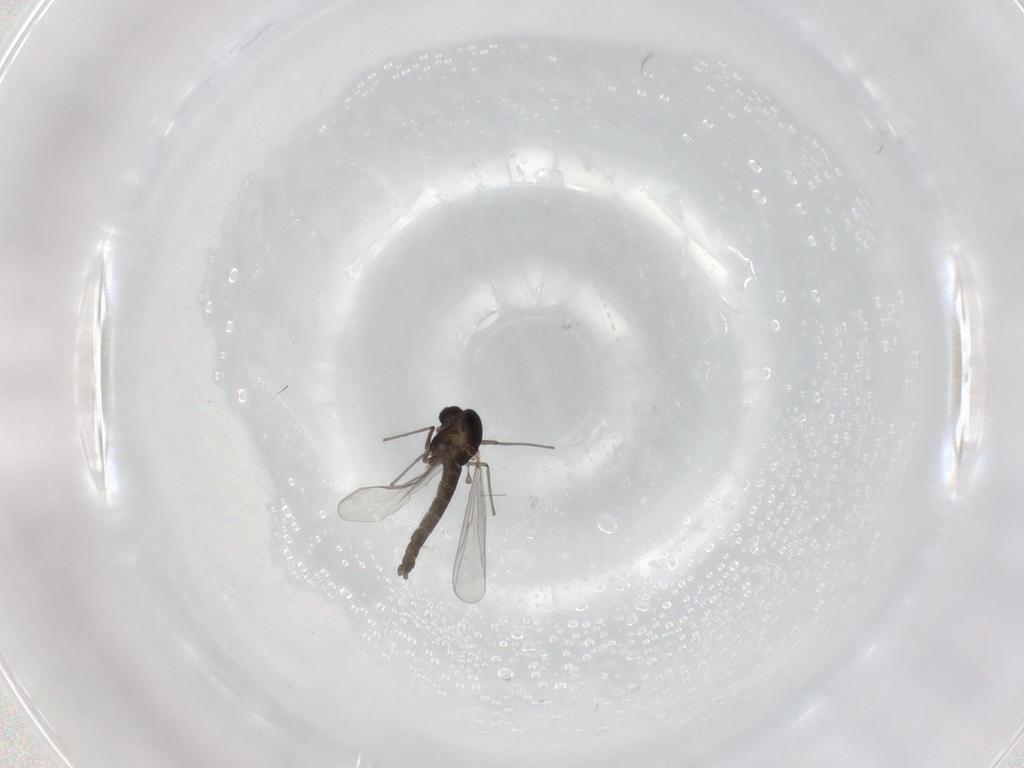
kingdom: Animalia
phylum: Arthropoda
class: Insecta
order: Diptera
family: Chironomidae
